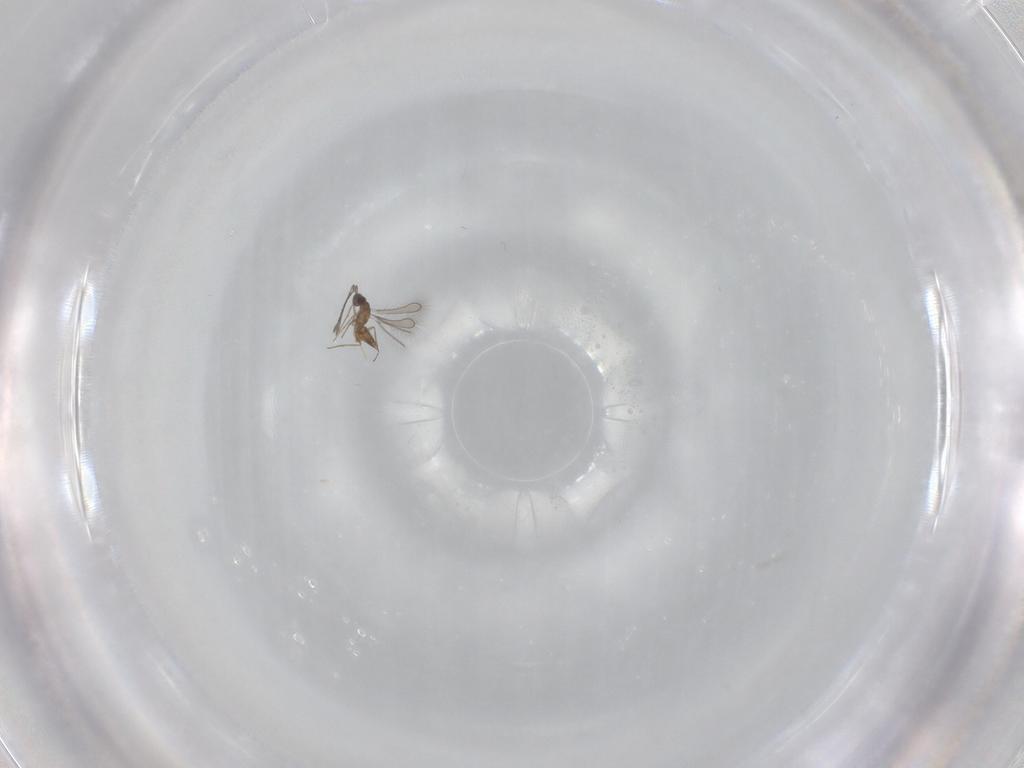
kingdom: Animalia
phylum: Arthropoda
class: Insecta
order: Hymenoptera
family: Mymaridae
